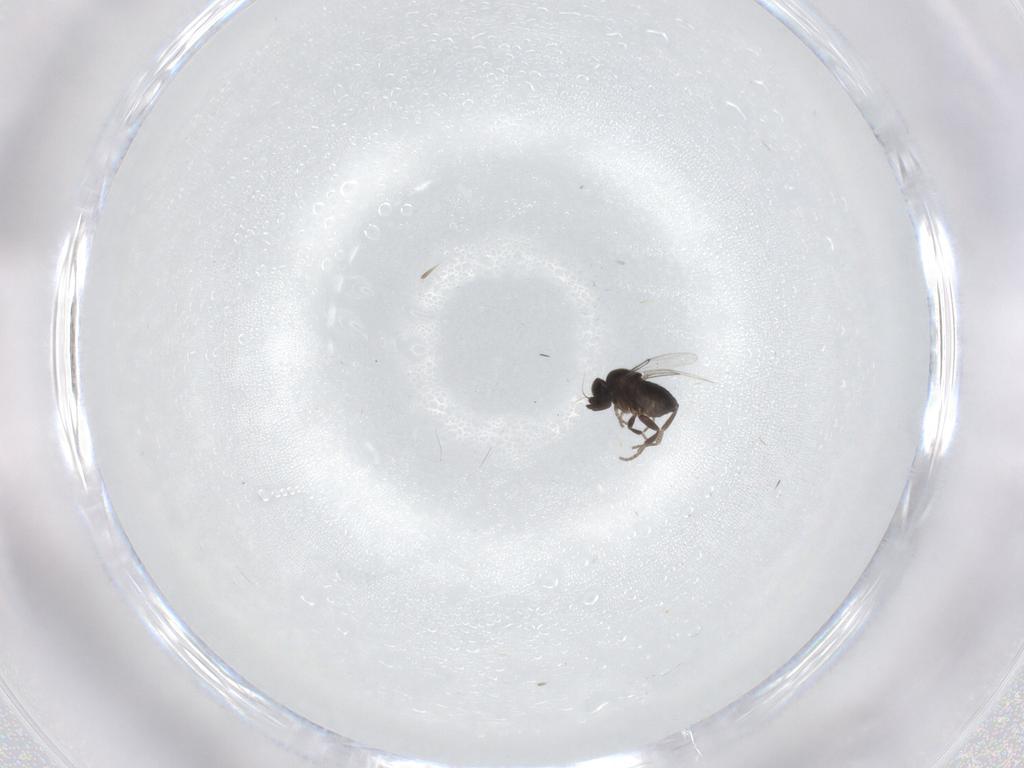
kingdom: Animalia
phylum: Arthropoda
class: Insecta
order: Diptera
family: Phoridae
